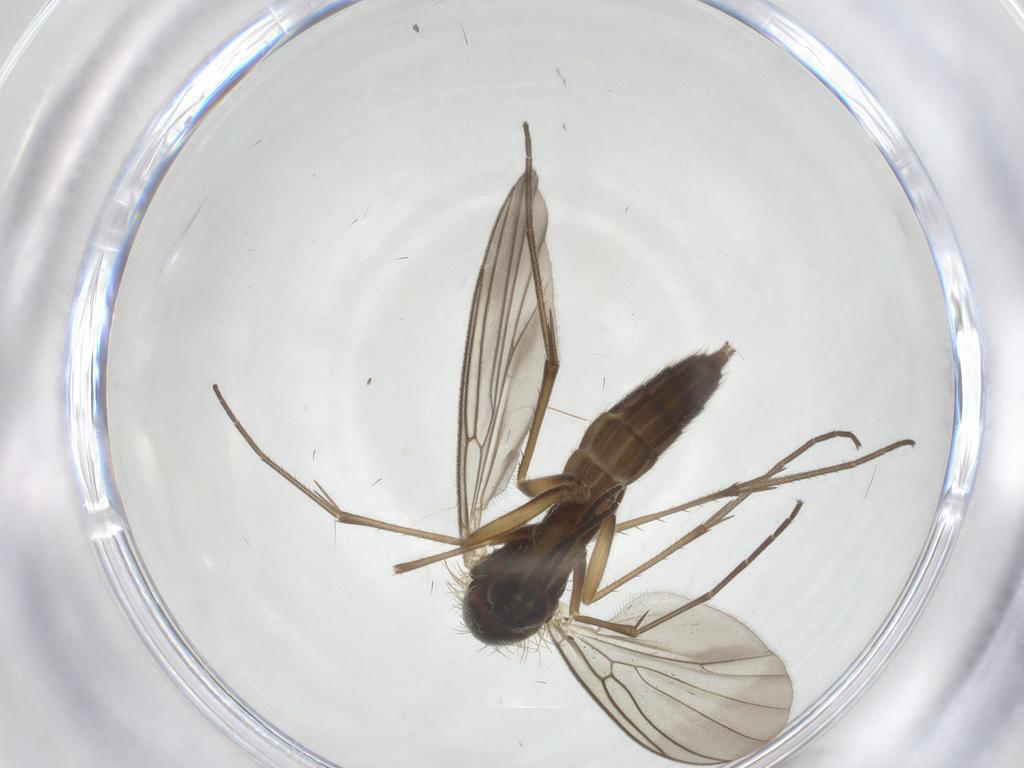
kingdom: Animalia
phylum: Arthropoda
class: Insecta
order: Diptera
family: Mycetophilidae
